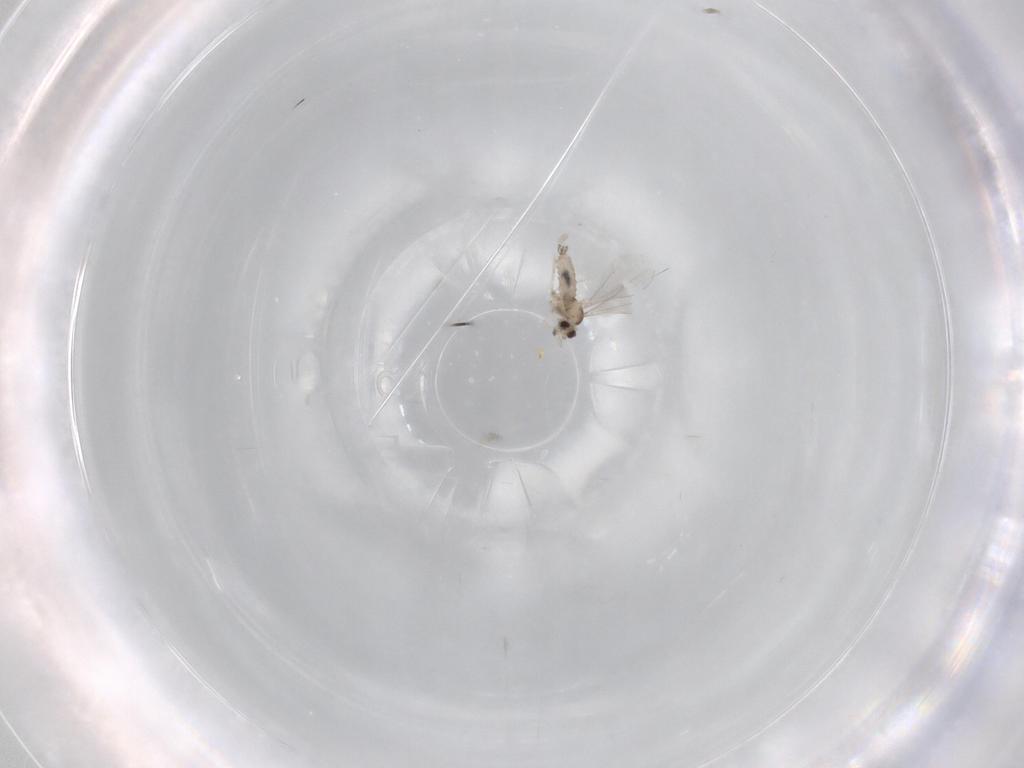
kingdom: Animalia
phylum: Arthropoda
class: Insecta
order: Diptera
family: Cecidomyiidae
